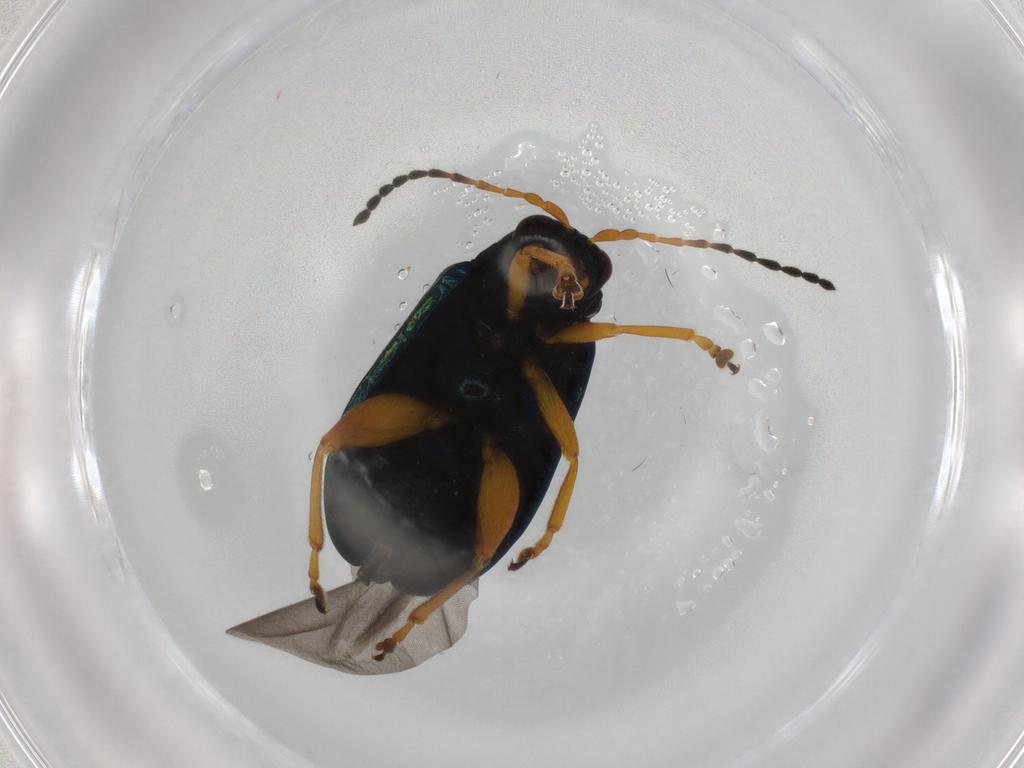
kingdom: Animalia
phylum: Arthropoda
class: Insecta
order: Coleoptera
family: Chrysomelidae
